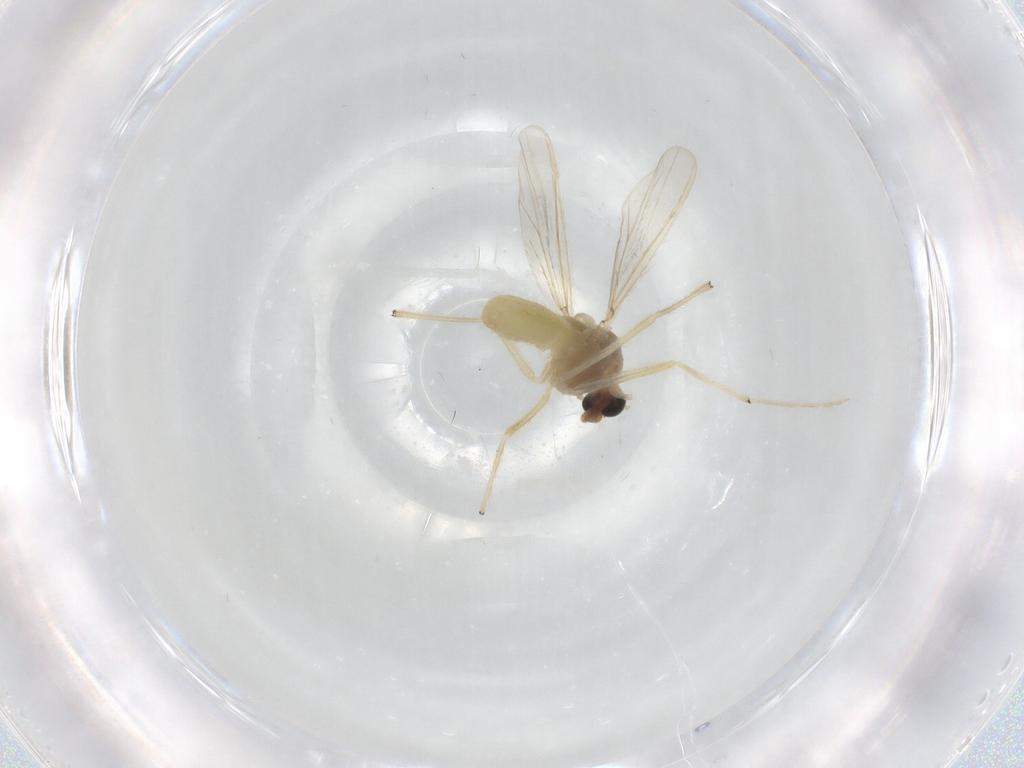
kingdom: Animalia
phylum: Arthropoda
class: Insecta
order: Diptera
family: Chironomidae
